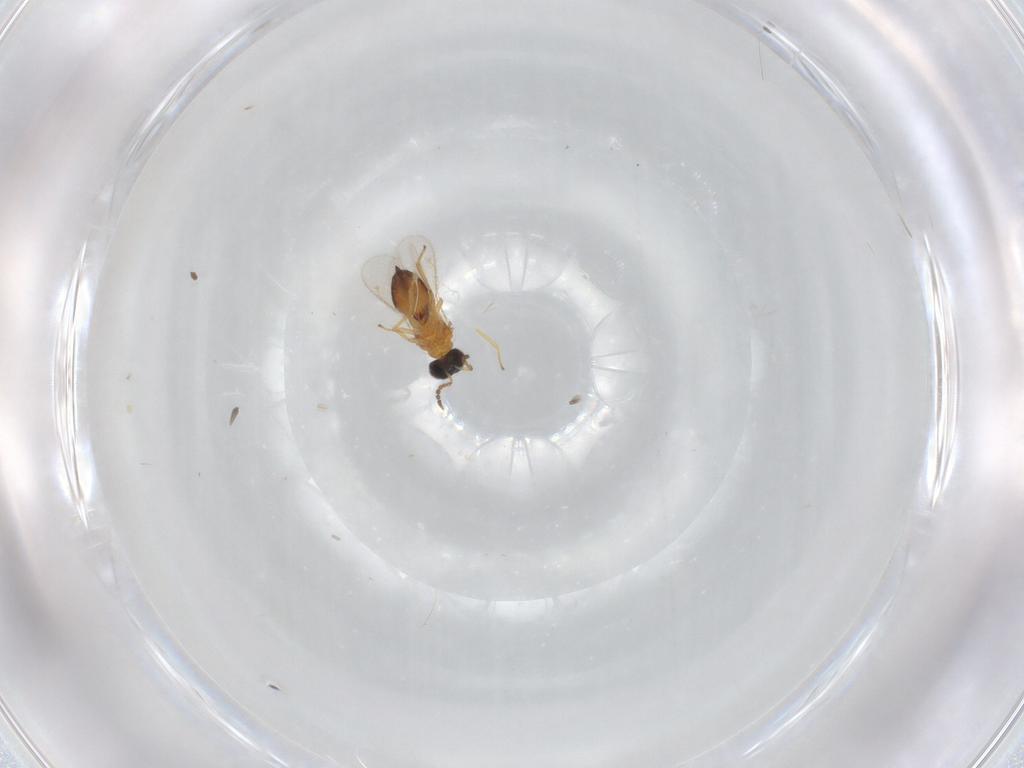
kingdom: Animalia
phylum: Arthropoda
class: Insecta
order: Hymenoptera
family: Eulophidae
